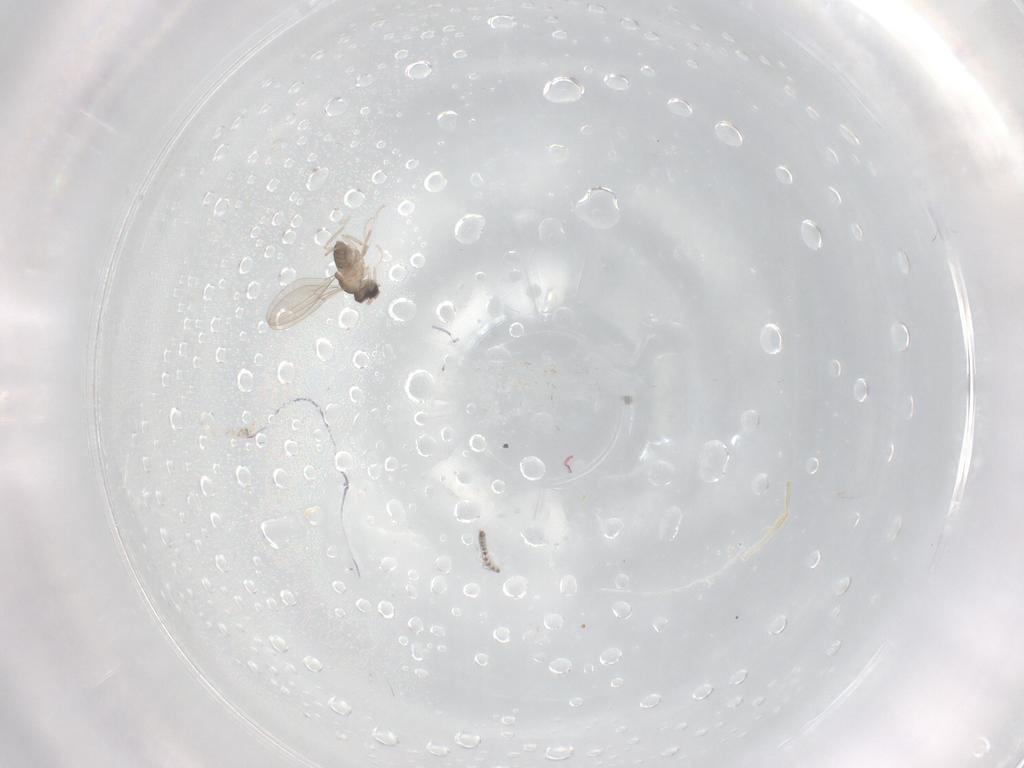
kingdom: Animalia
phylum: Arthropoda
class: Insecta
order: Diptera
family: Cecidomyiidae
